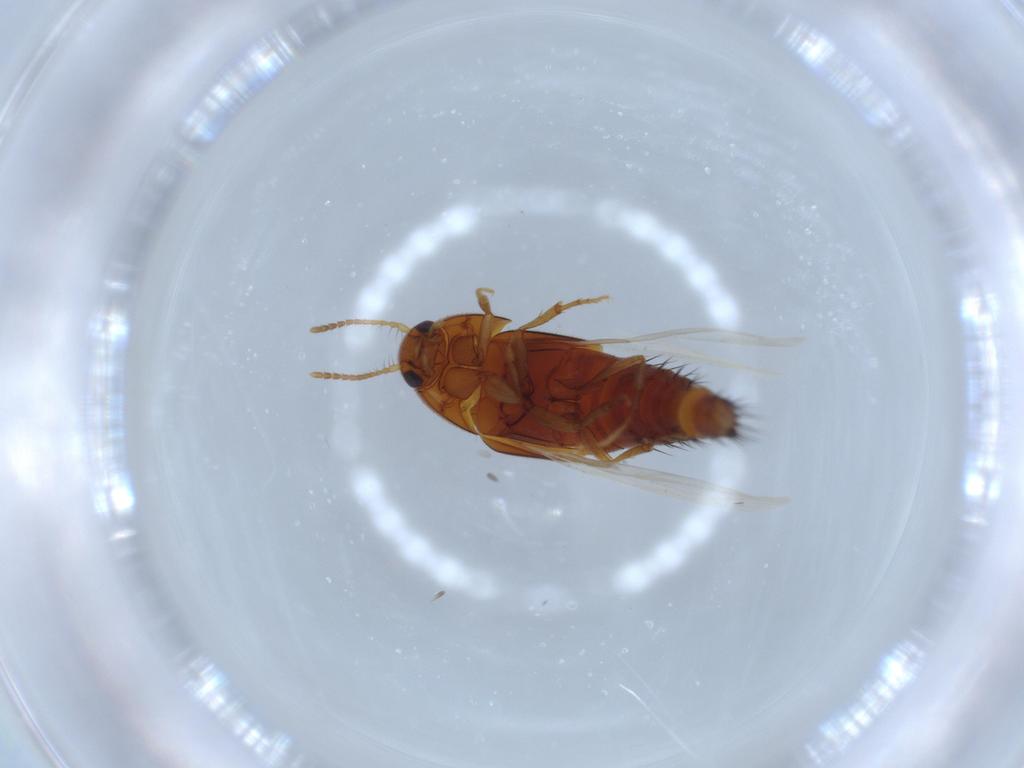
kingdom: Animalia
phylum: Arthropoda
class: Insecta
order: Coleoptera
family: Staphylinidae
